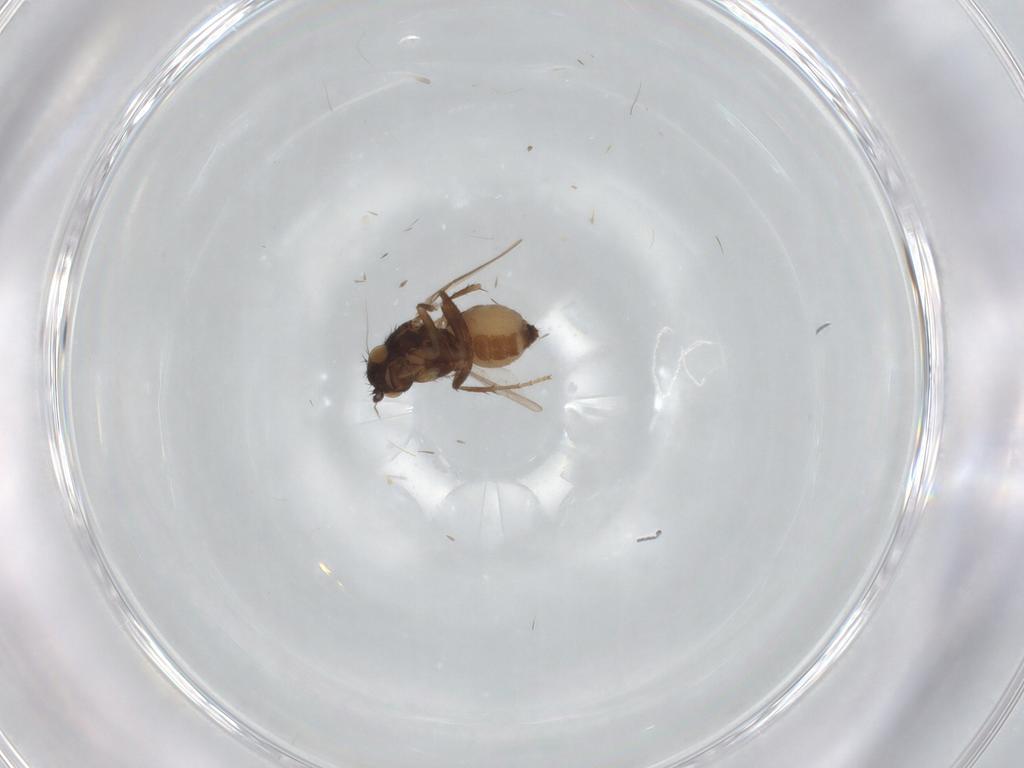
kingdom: Animalia
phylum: Arthropoda
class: Insecta
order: Diptera
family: Sphaeroceridae
